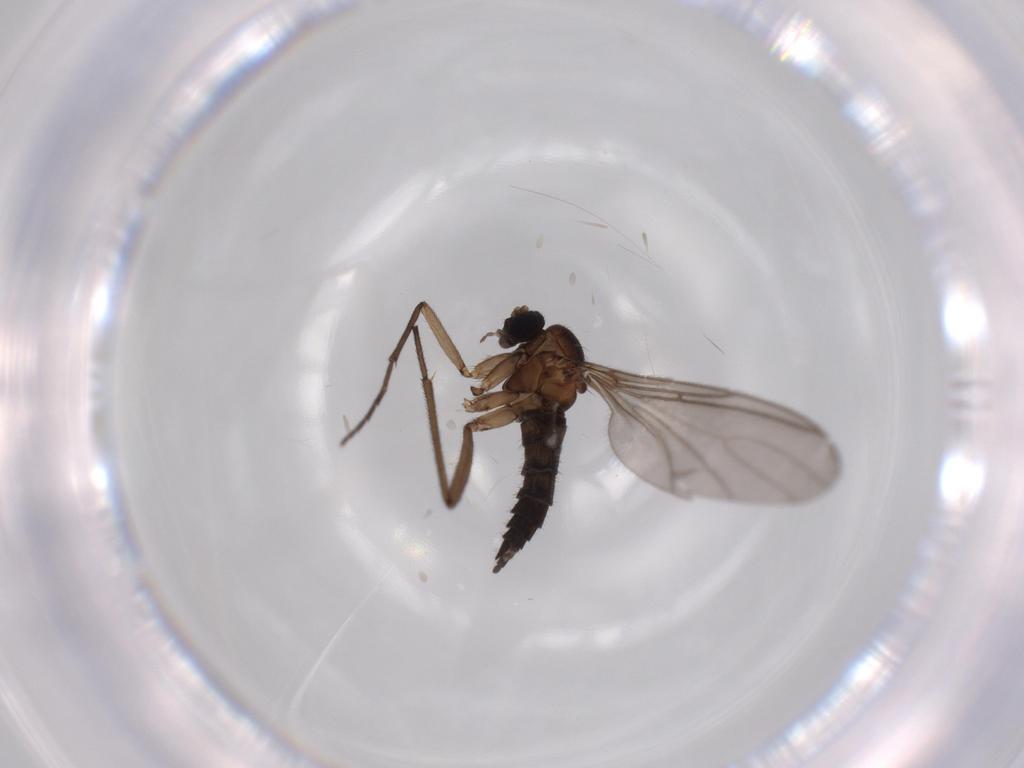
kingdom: Animalia
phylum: Arthropoda
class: Insecta
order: Diptera
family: Sciaridae
